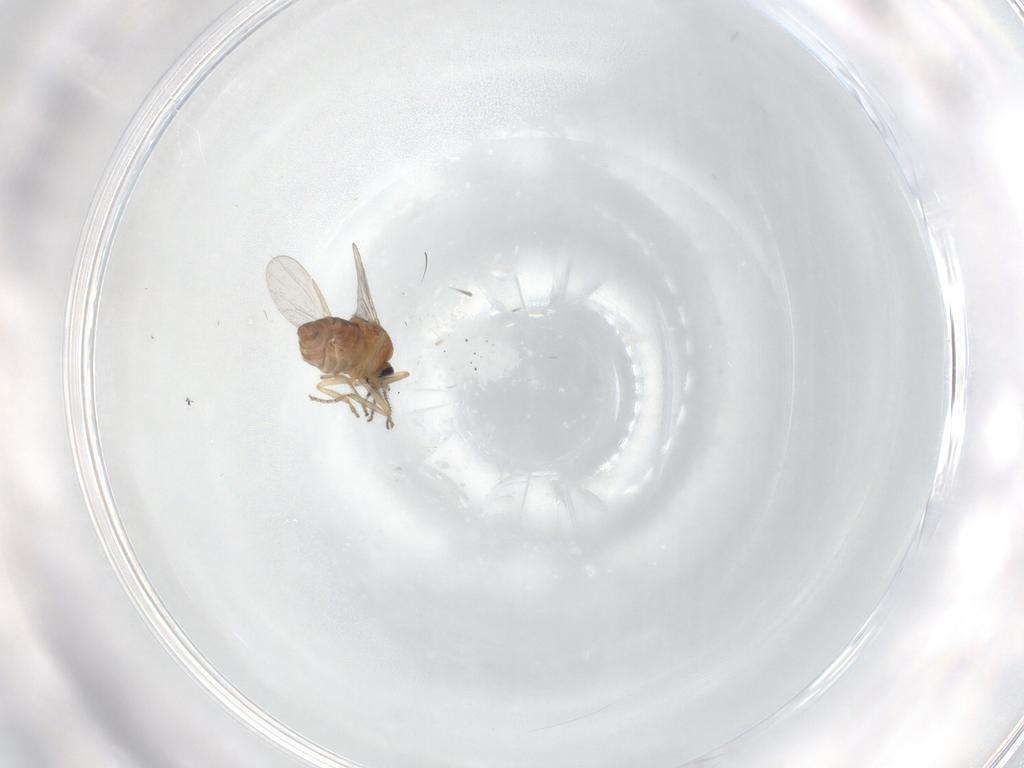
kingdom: Animalia
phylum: Arthropoda
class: Insecta
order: Diptera
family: Ceratopogonidae
